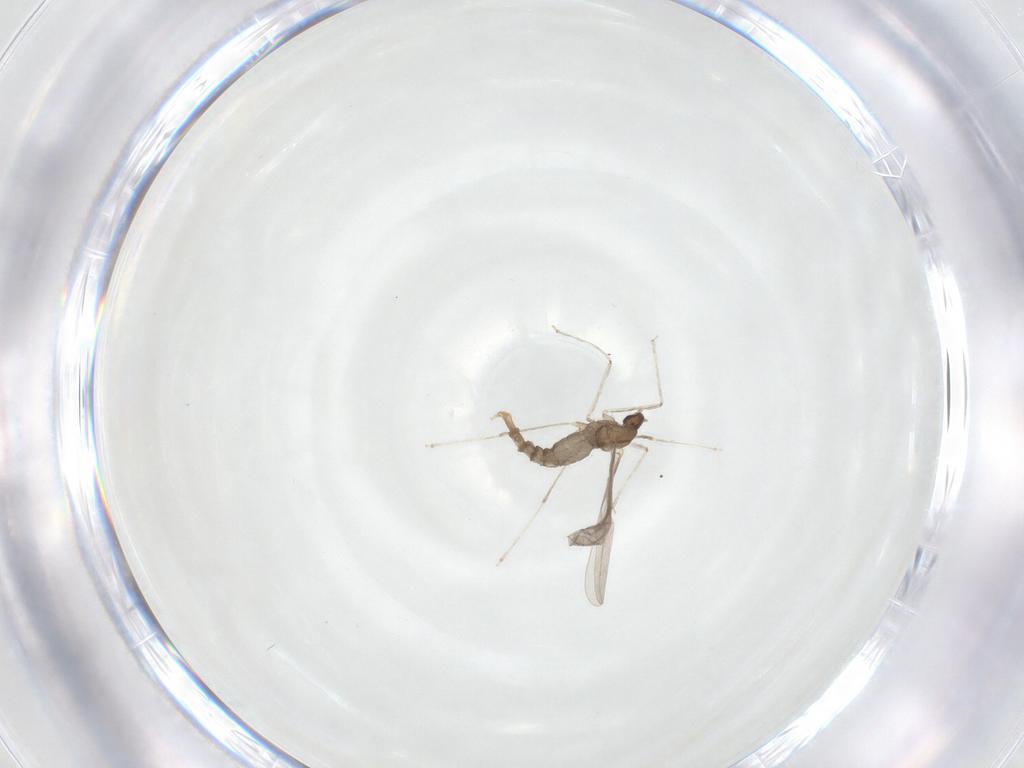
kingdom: Animalia
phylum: Arthropoda
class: Insecta
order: Diptera
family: Cecidomyiidae
